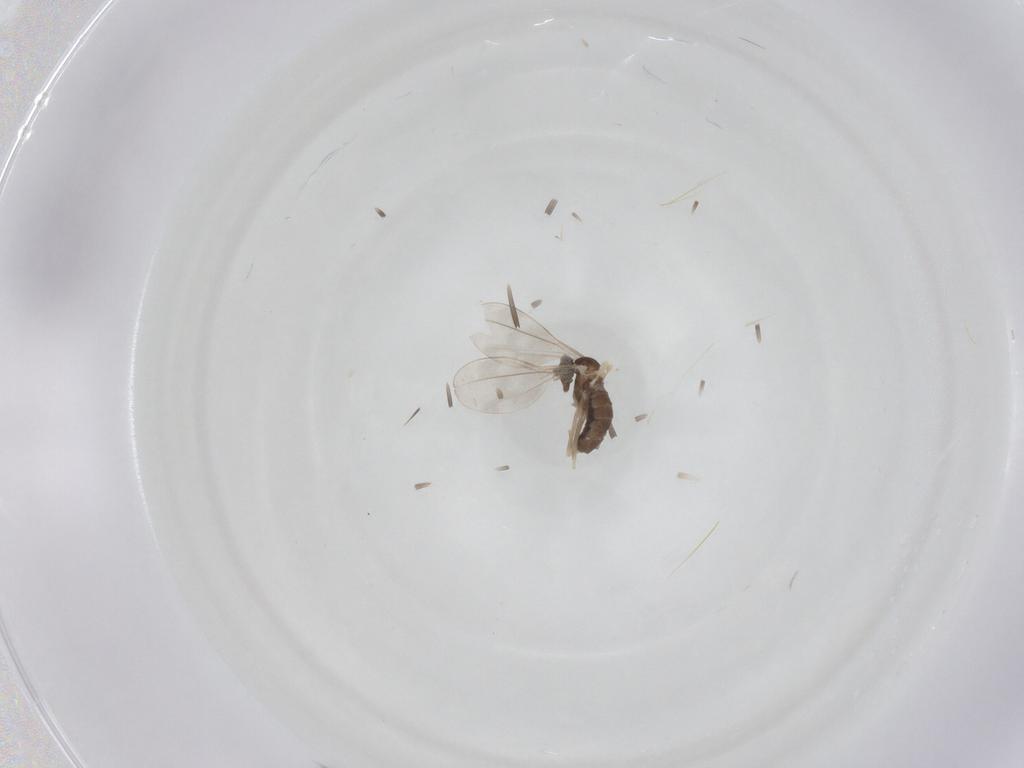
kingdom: Animalia
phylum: Arthropoda
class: Insecta
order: Diptera
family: Cecidomyiidae
